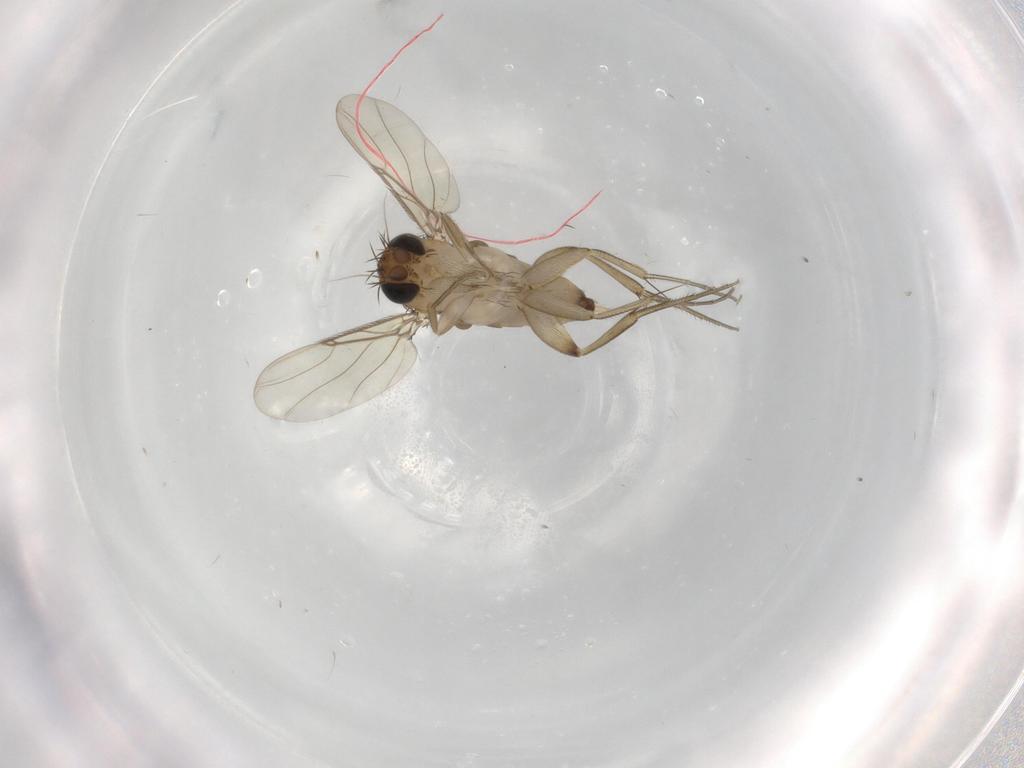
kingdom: Animalia
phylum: Arthropoda
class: Insecta
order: Diptera
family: Phoridae
